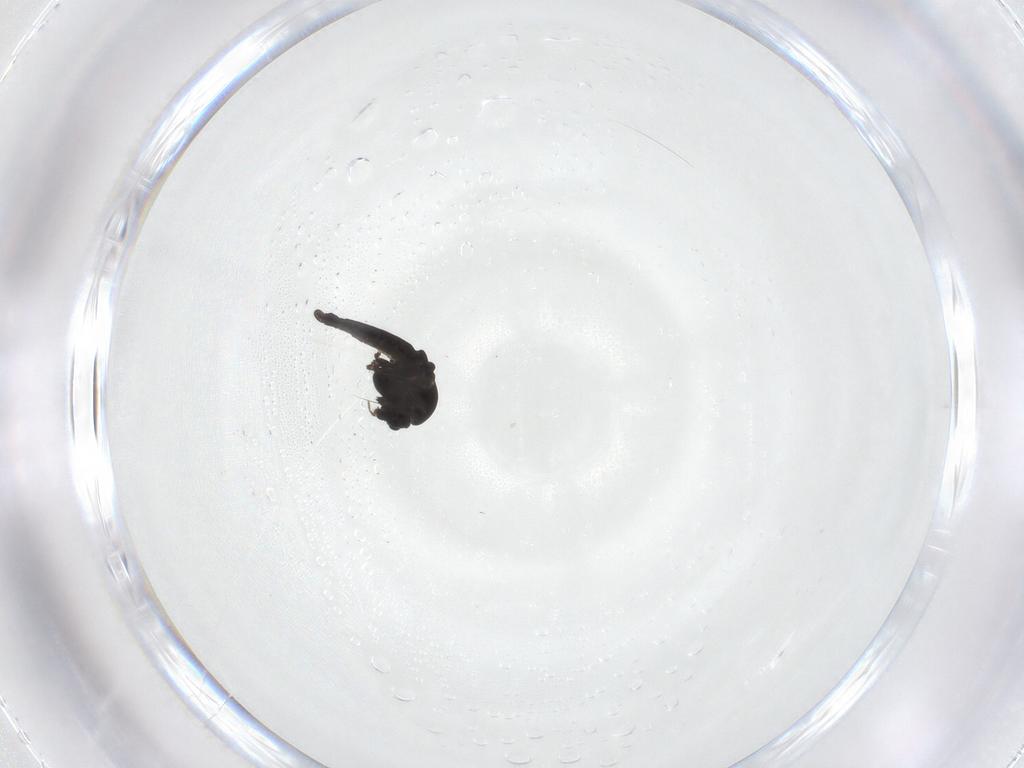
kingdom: Animalia
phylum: Arthropoda
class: Insecta
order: Diptera
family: Chironomidae
